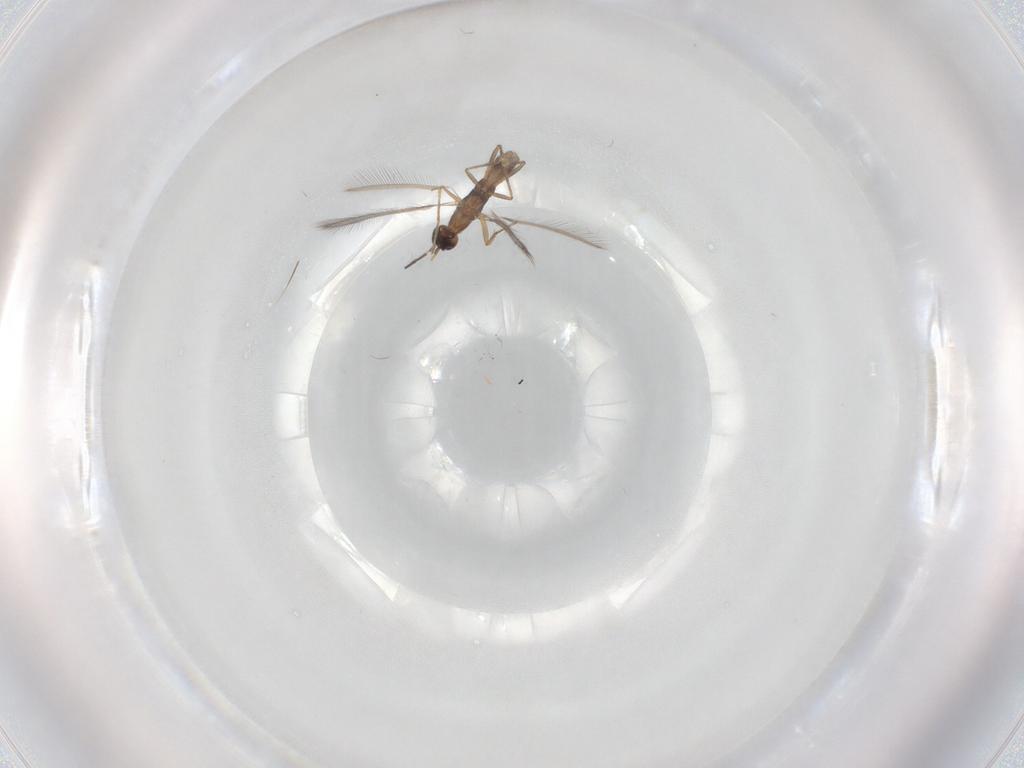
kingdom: Animalia
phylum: Arthropoda
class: Insecta
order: Hymenoptera
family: Mymaridae
